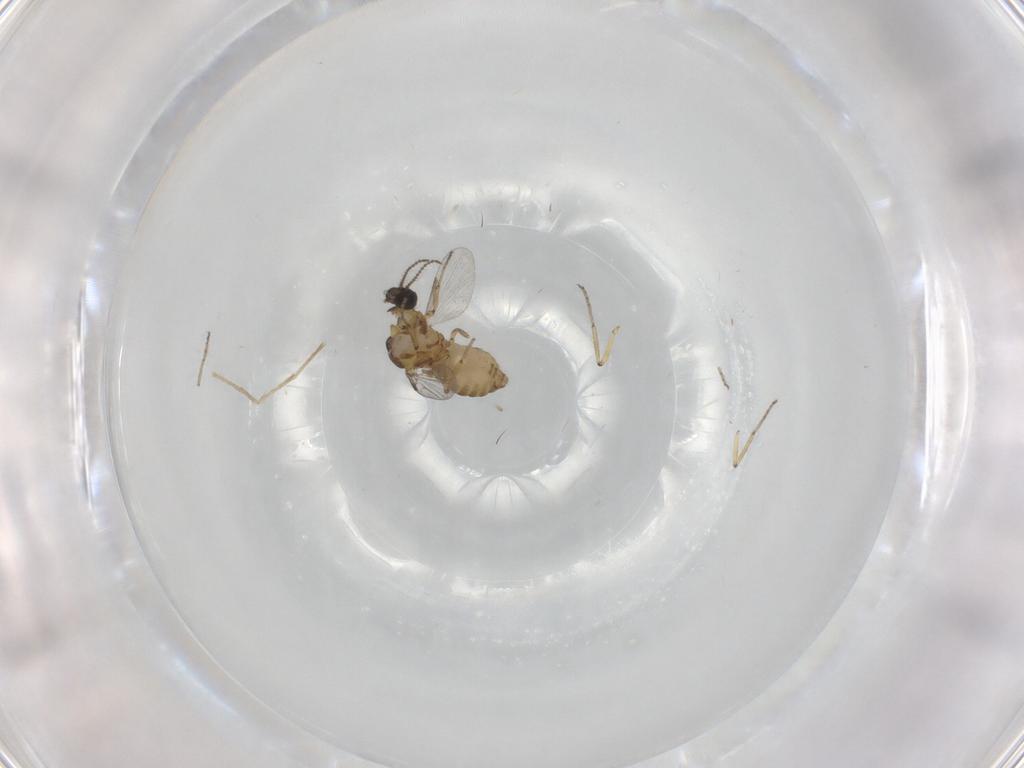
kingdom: Animalia
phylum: Arthropoda
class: Insecta
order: Diptera
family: Ceratopogonidae
